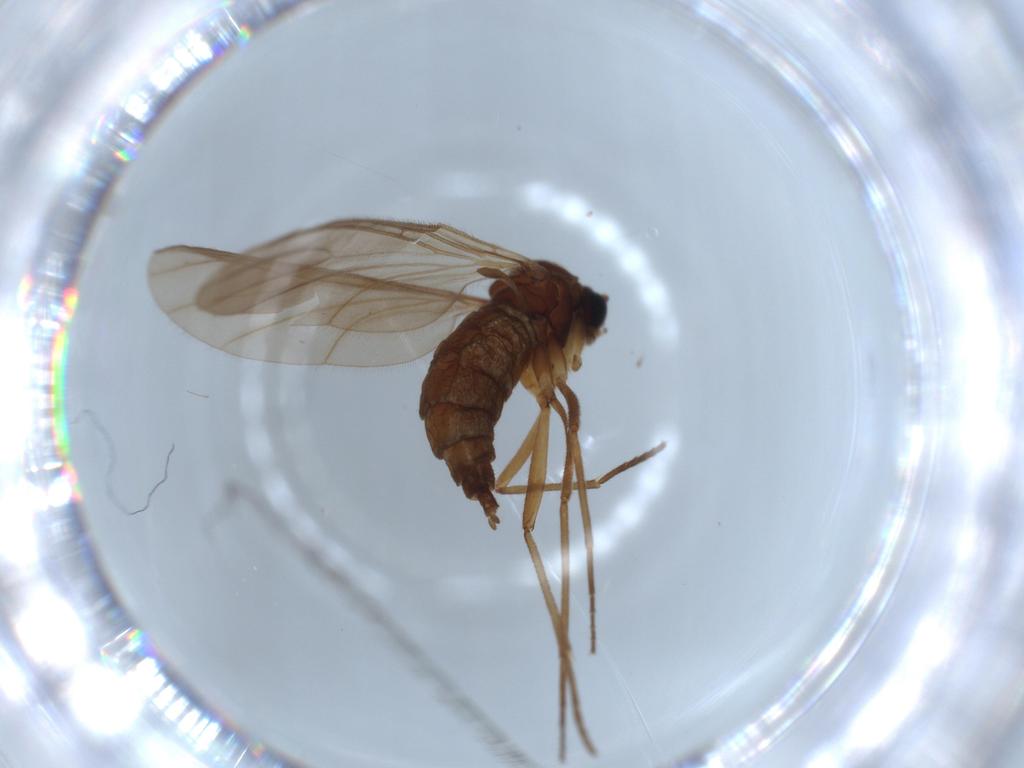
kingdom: Animalia
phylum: Arthropoda
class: Insecta
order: Diptera
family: Sciaridae
